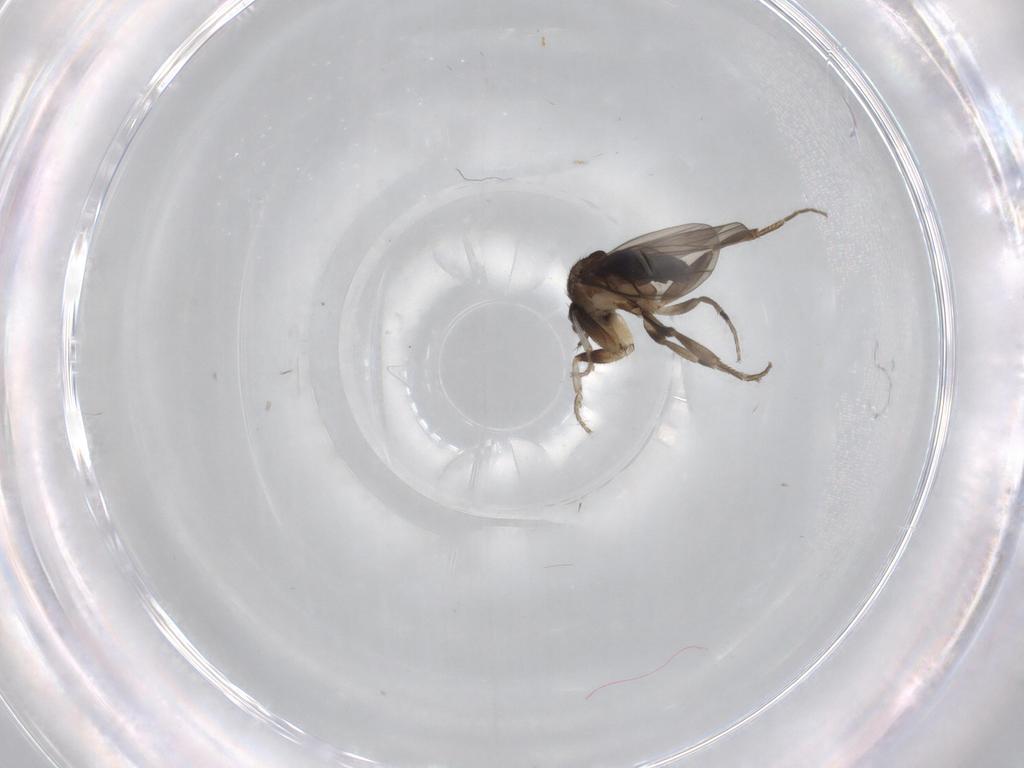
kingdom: Animalia
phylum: Arthropoda
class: Insecta
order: Diptera
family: Phoridae
